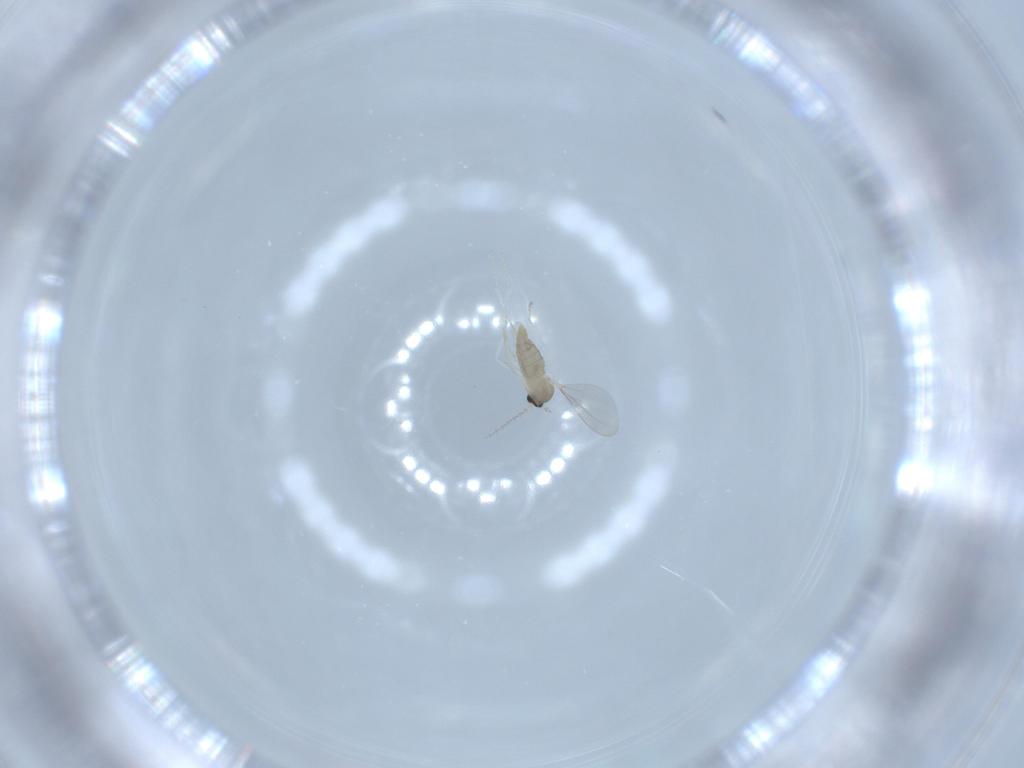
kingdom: Animalia
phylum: Arthropoda
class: Insecta
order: Diptera
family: Cecidomyiidae
